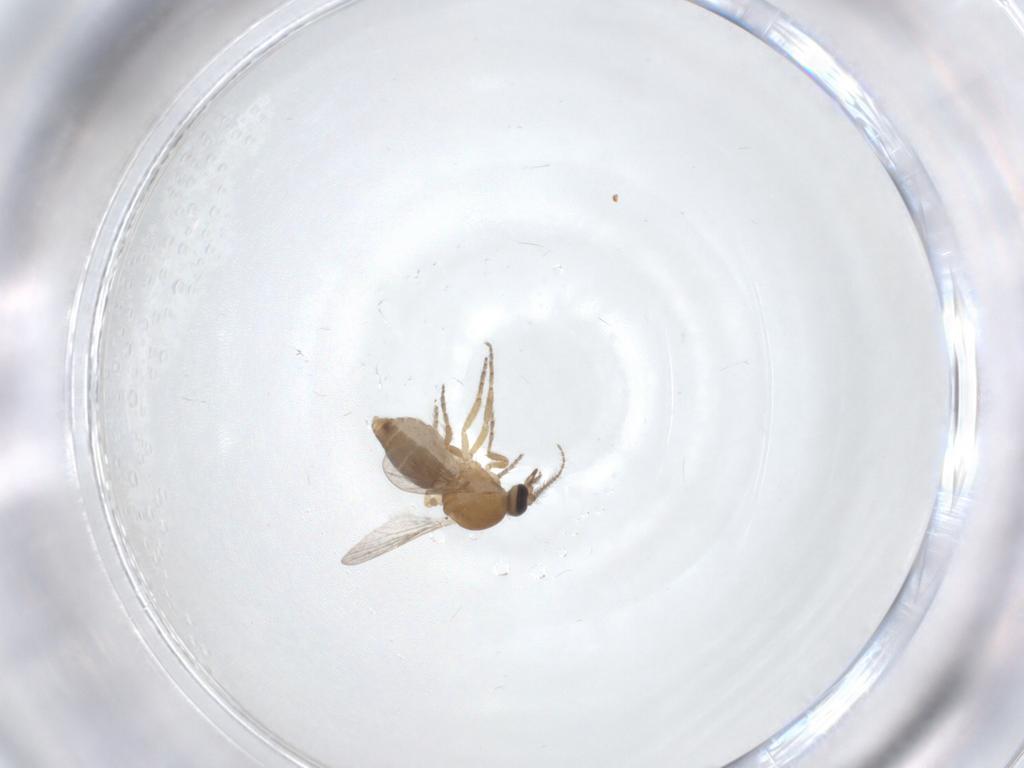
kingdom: Animalia
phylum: Arthropoda
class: Insecta
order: Diptera
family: Ceratopogonidae
